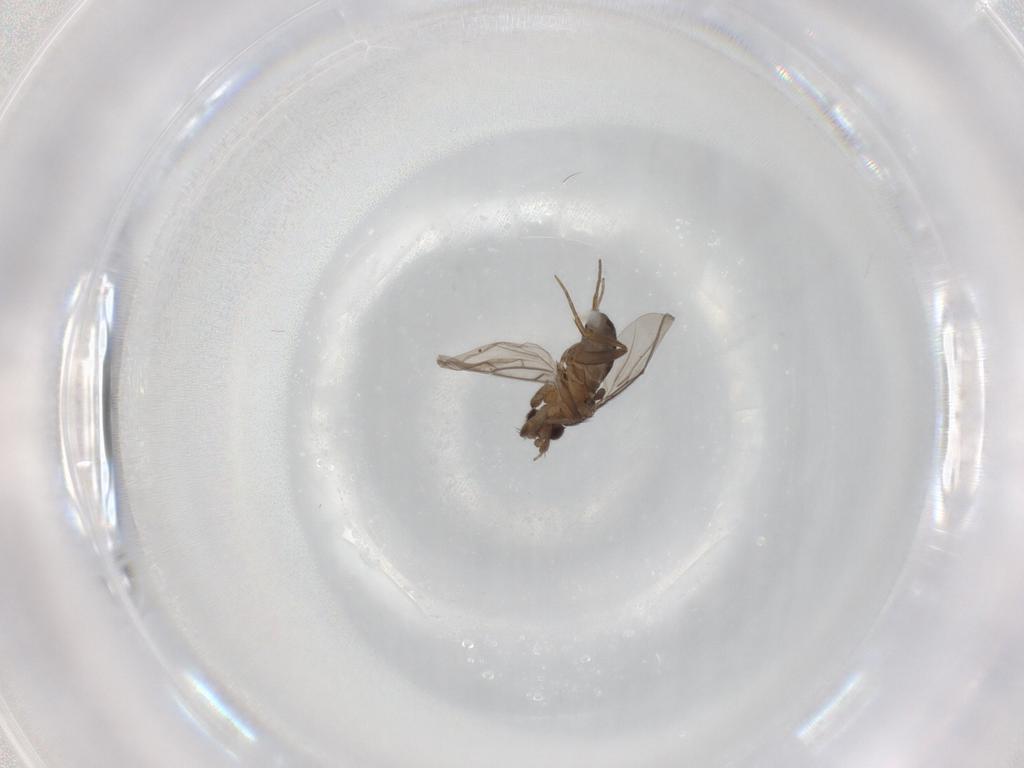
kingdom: Animalia
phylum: Arthropoda
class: Insecta
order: Diptera
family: Phoridae
